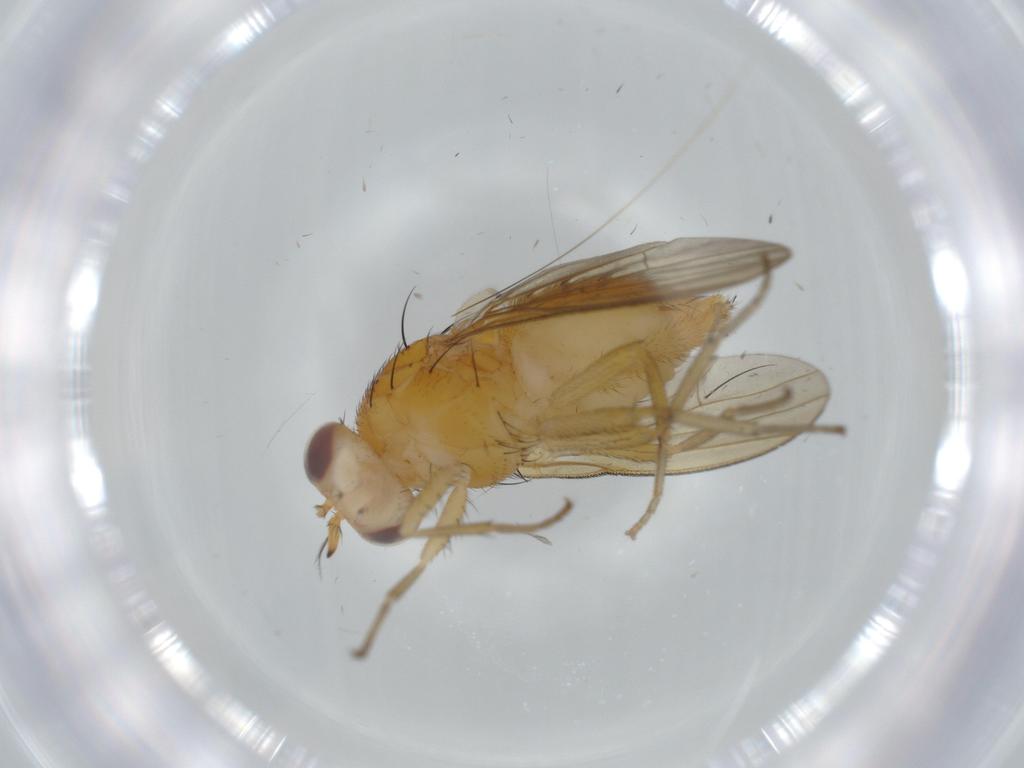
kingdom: Animalia
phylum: Arthropoda
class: Insecta
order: Diptera
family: Lauxaniidae
